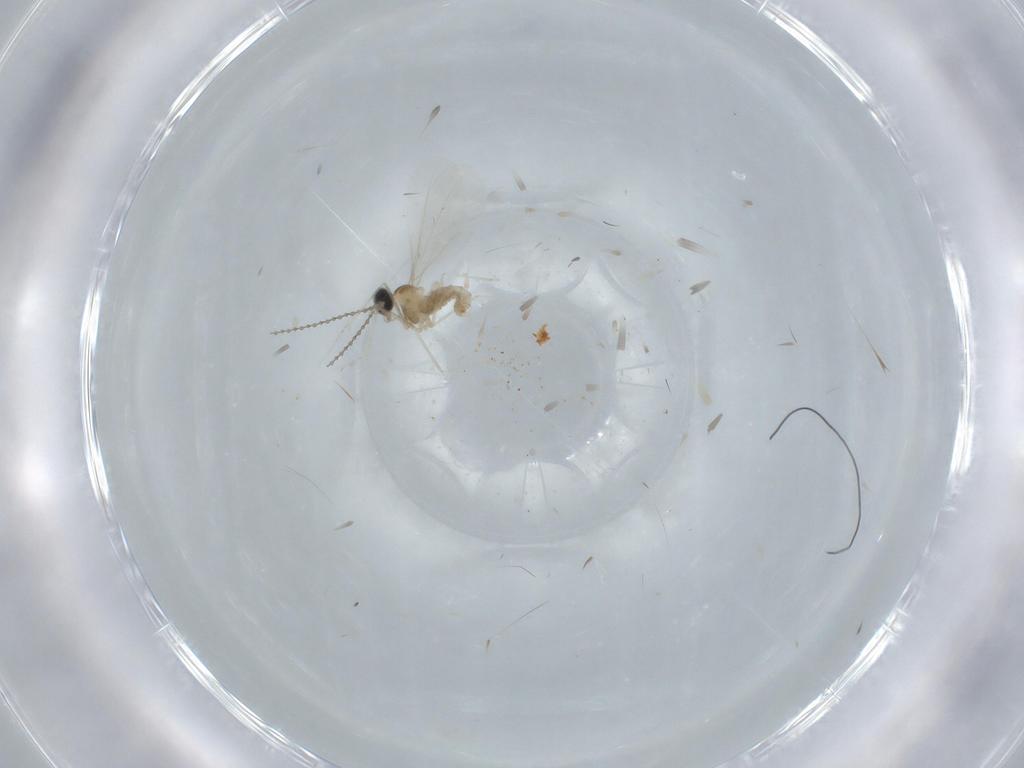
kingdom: Animalia
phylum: Arthropoda
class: Insecta
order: Diptera
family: Cecidomyiidae
